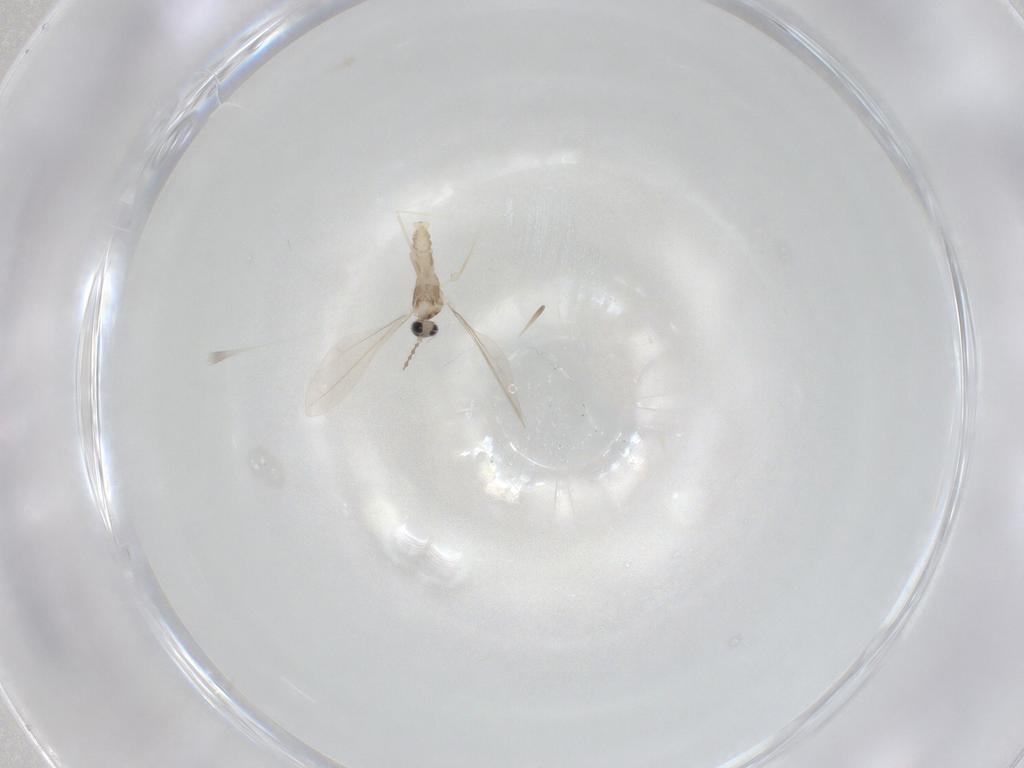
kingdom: Animalia
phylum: Arthropoda
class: Insecta
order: Diptera
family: Cecidomyiidae
